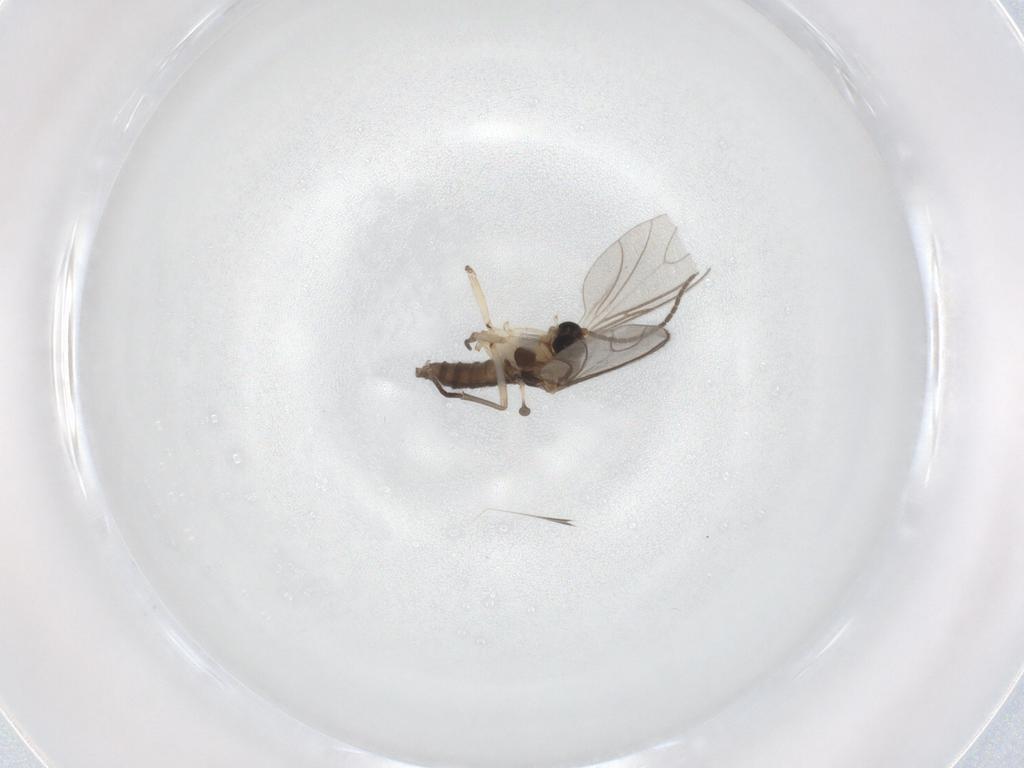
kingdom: Animalia
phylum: Arthropoda
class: Insecta
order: Diptera
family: Sciaridae
